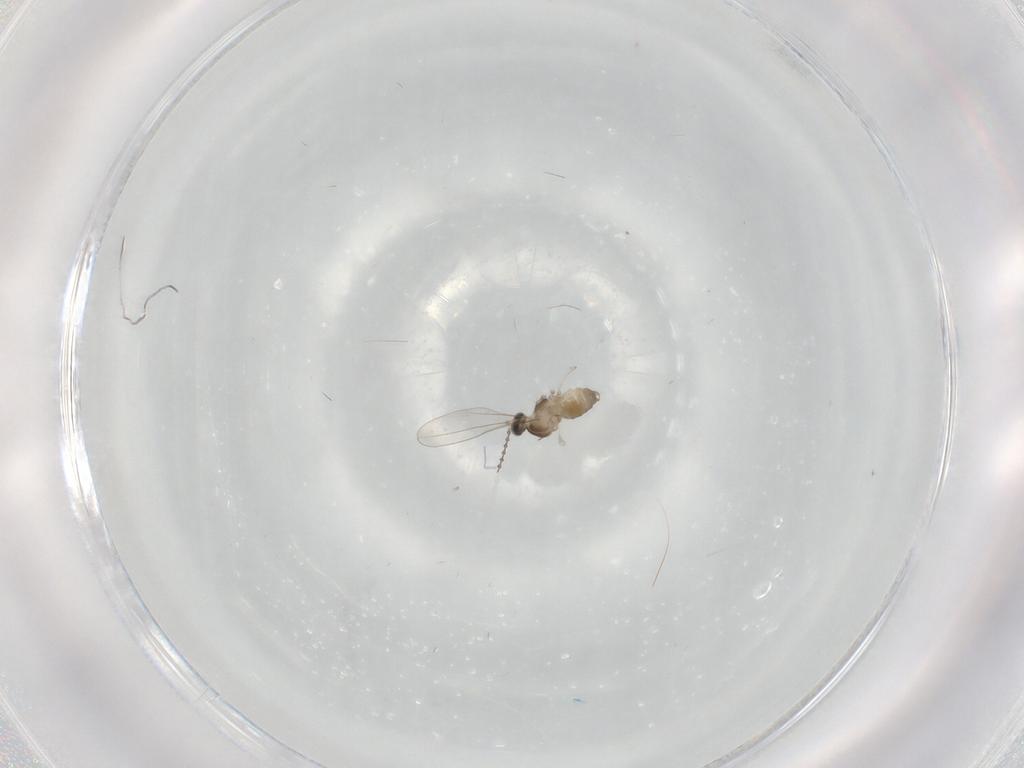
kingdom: Animalia
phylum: Arthropoda
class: Insecta
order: Diptera
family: Cecidomyiidae
